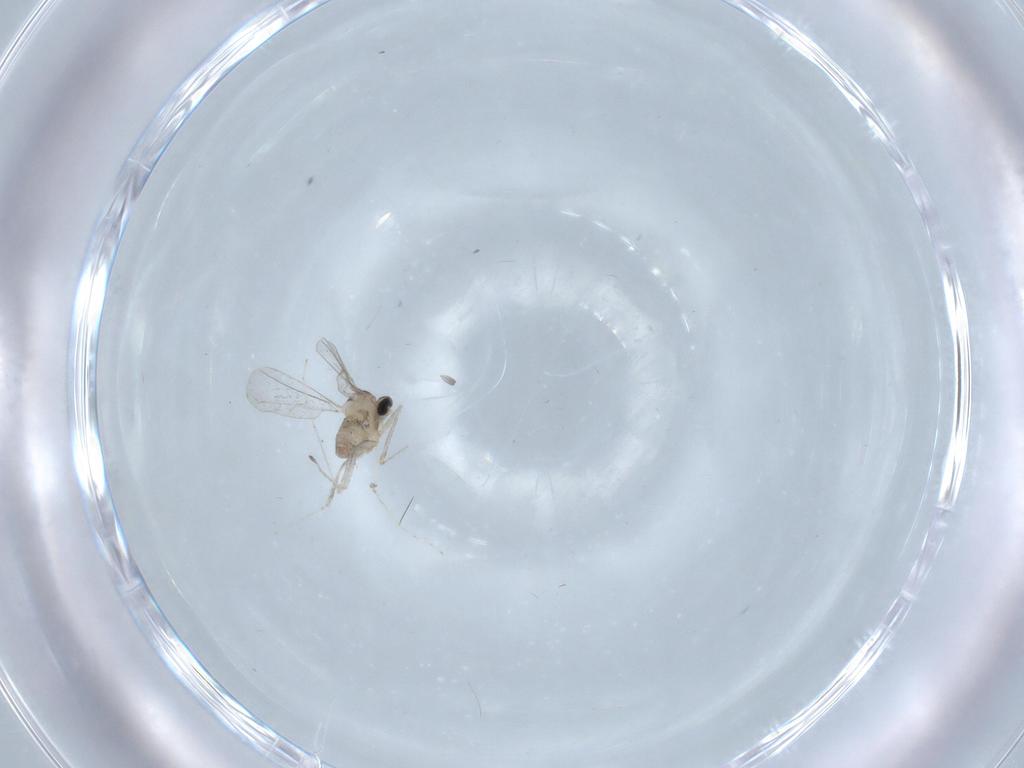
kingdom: Animalia
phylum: Arthropoda
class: Insecta
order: Diptera
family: Cecidomyiidae
